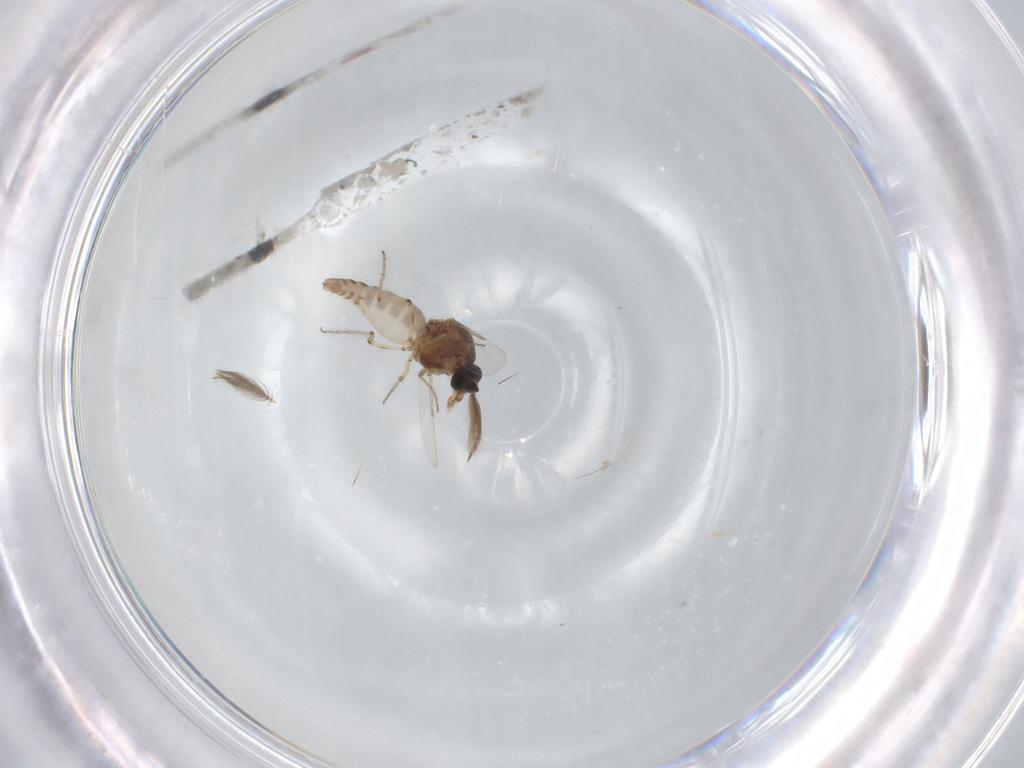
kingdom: Animalia
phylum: Arthropoda
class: Insecta
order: Diptera
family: Ceratopogonidae
